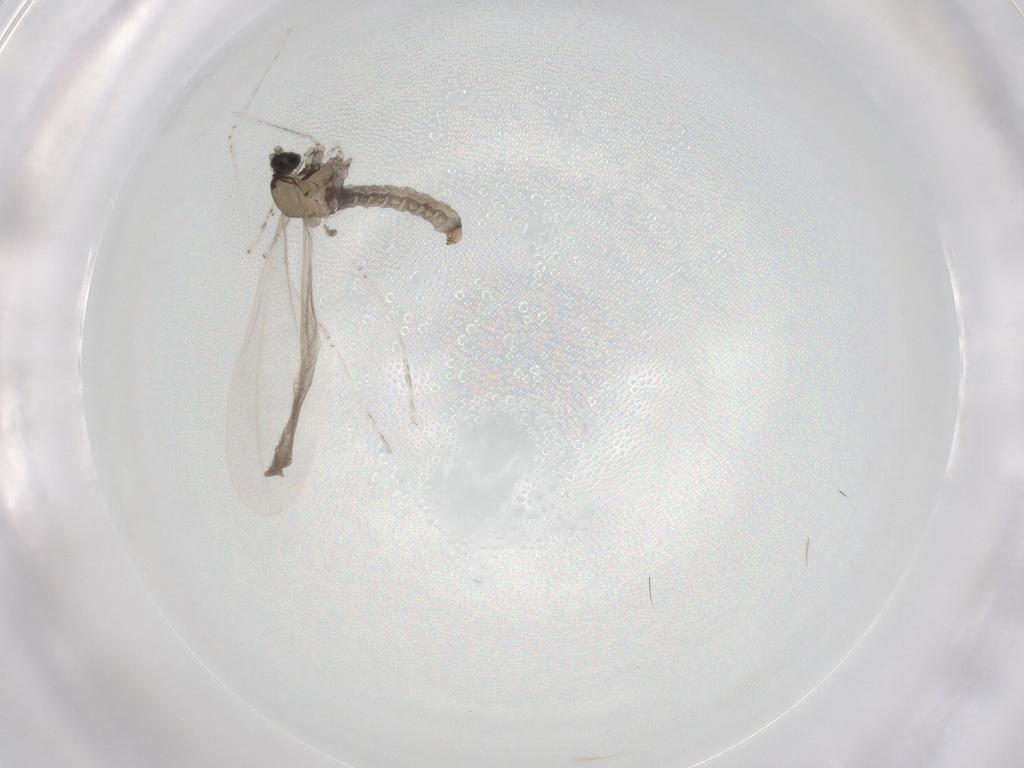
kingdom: Animalia
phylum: Arthropoda
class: Insecta
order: Diptera
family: Cecidomyiidae
